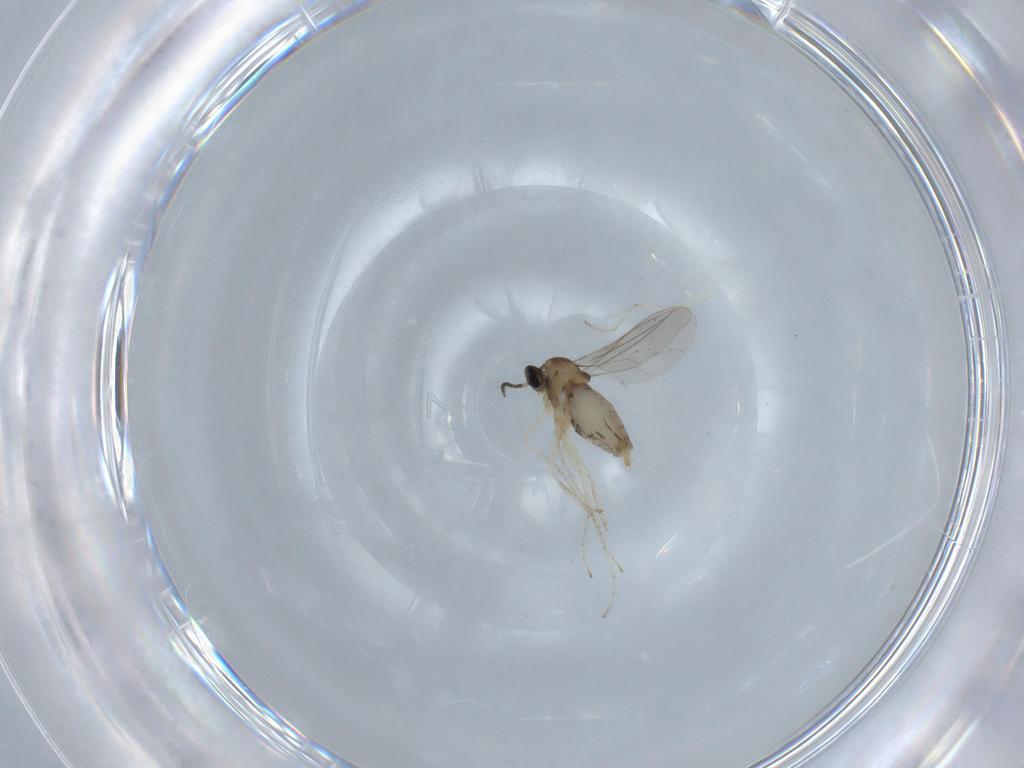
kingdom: Animalia
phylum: Arthropoda
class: Insecta
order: Diptera
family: Cecidomyiidae
